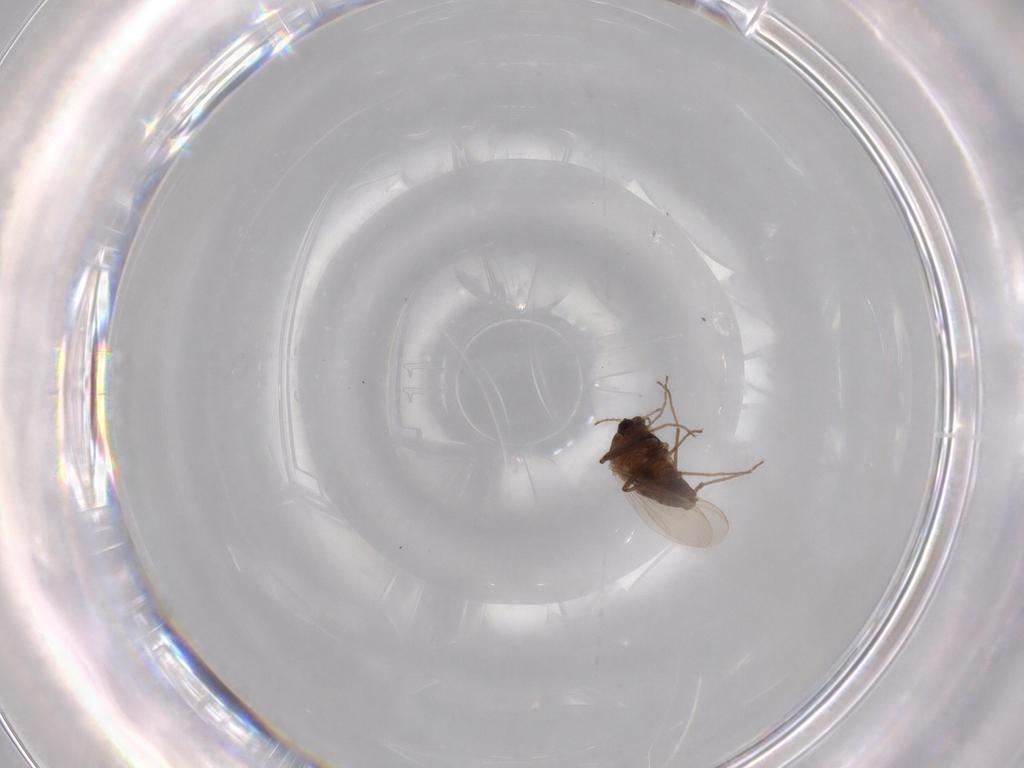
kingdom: Animalia
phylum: Arthropoda
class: Insecta
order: Diptera
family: Chironomidae
